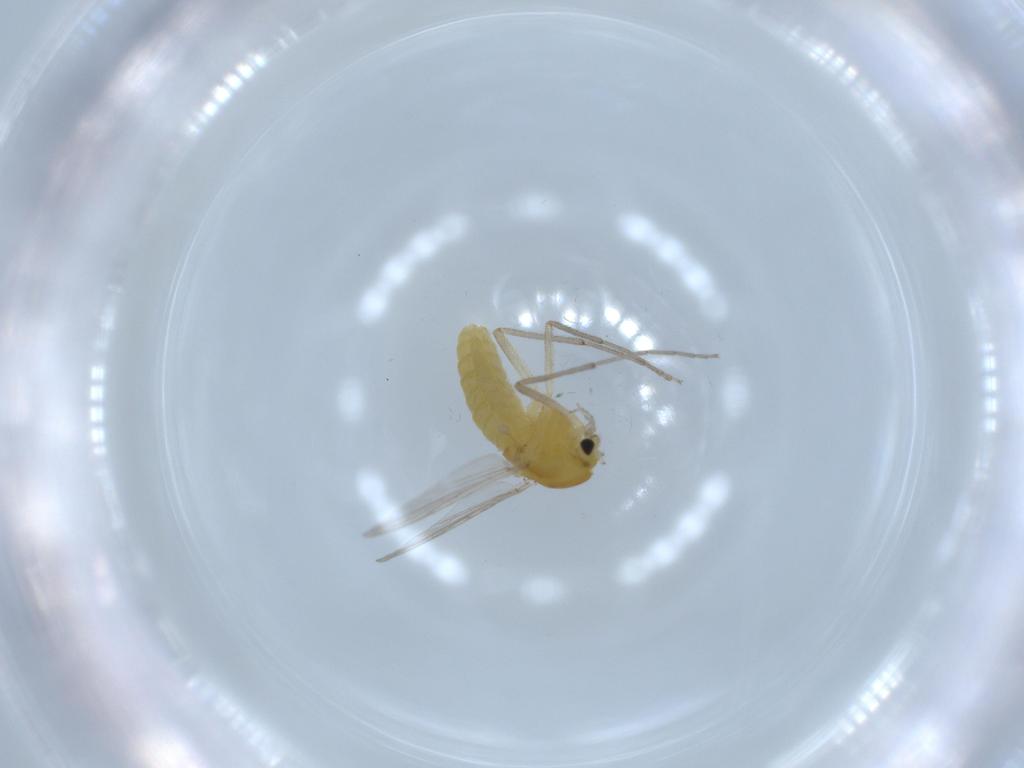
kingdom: Animalia
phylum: Arthropoda
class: Insecta
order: Diptera
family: Chironomidae
